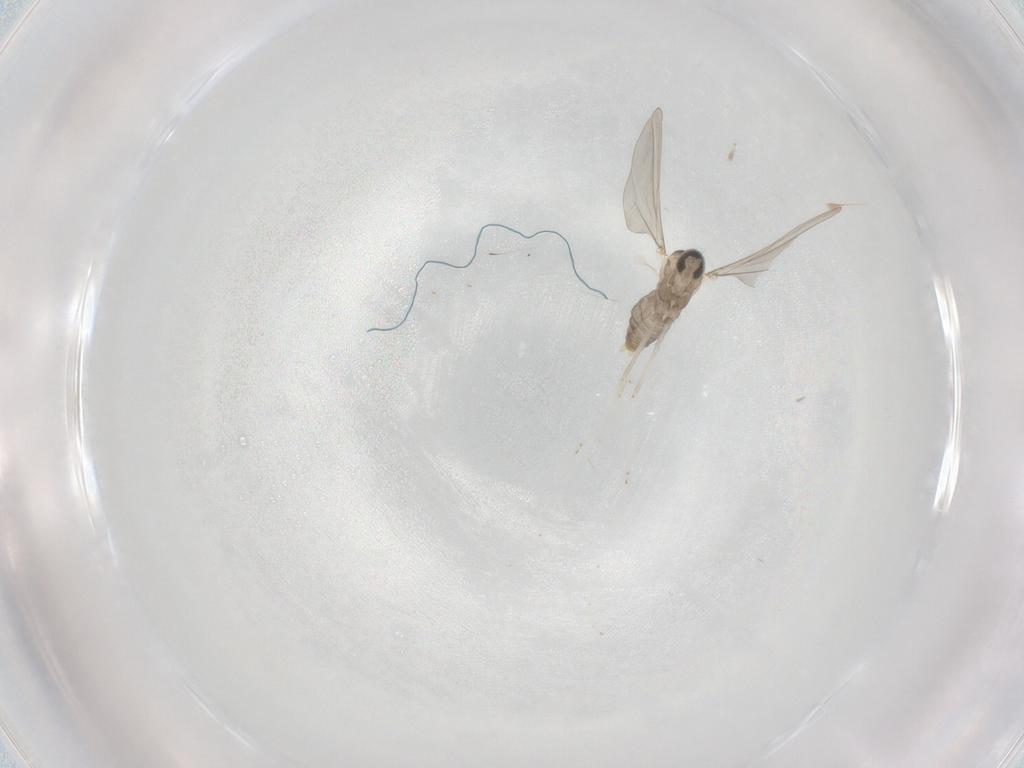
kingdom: Animalia
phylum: Arthropoda
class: Insecta
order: Diptera
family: Cecidomyiidae
